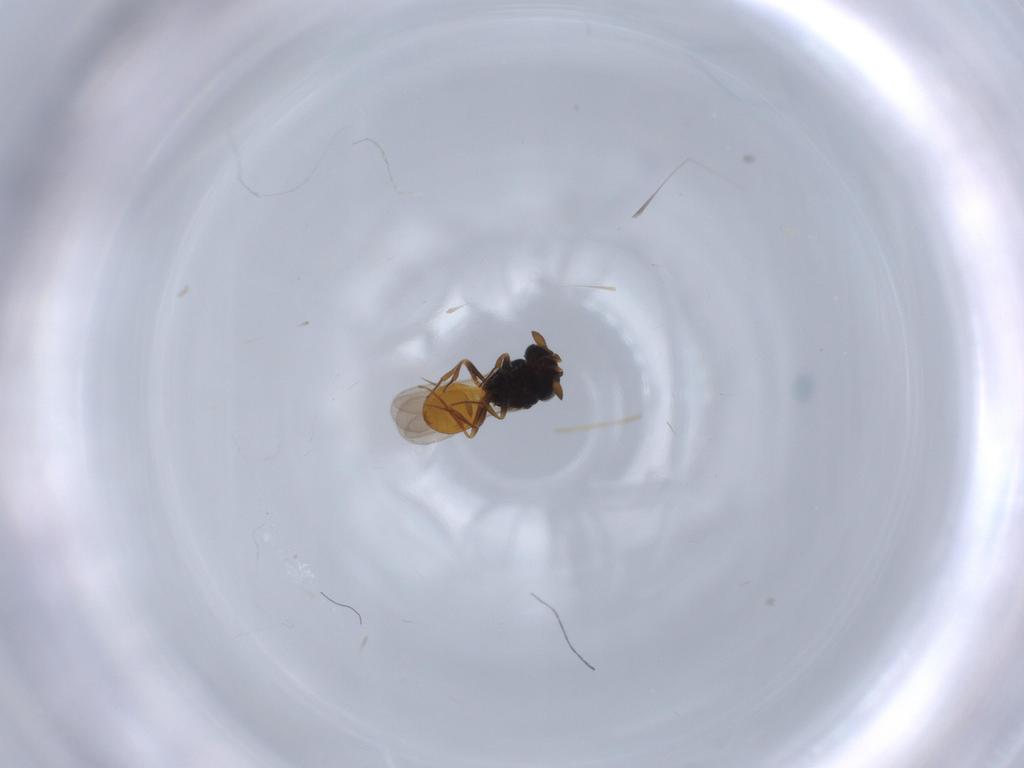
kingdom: Animalia
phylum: Arthropoda
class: Insecta
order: Hymenoptera
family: Scelionidae
